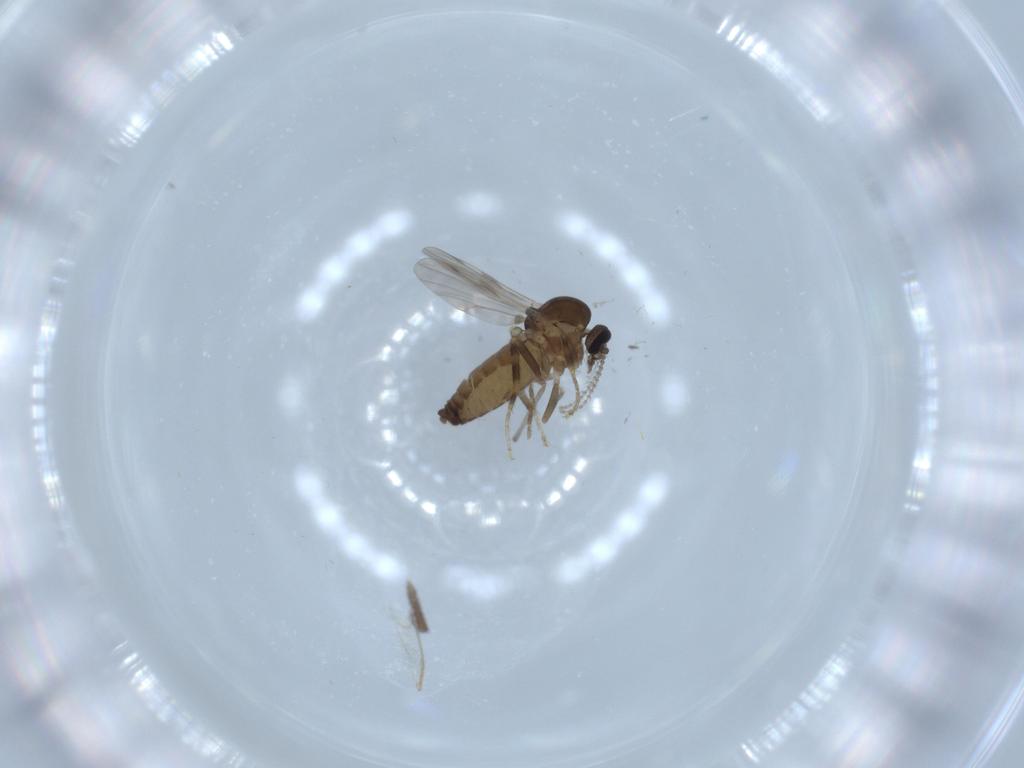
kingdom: Animalia
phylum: Arthropoda
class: Insecta
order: Diptera
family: Ceratopogonidae
